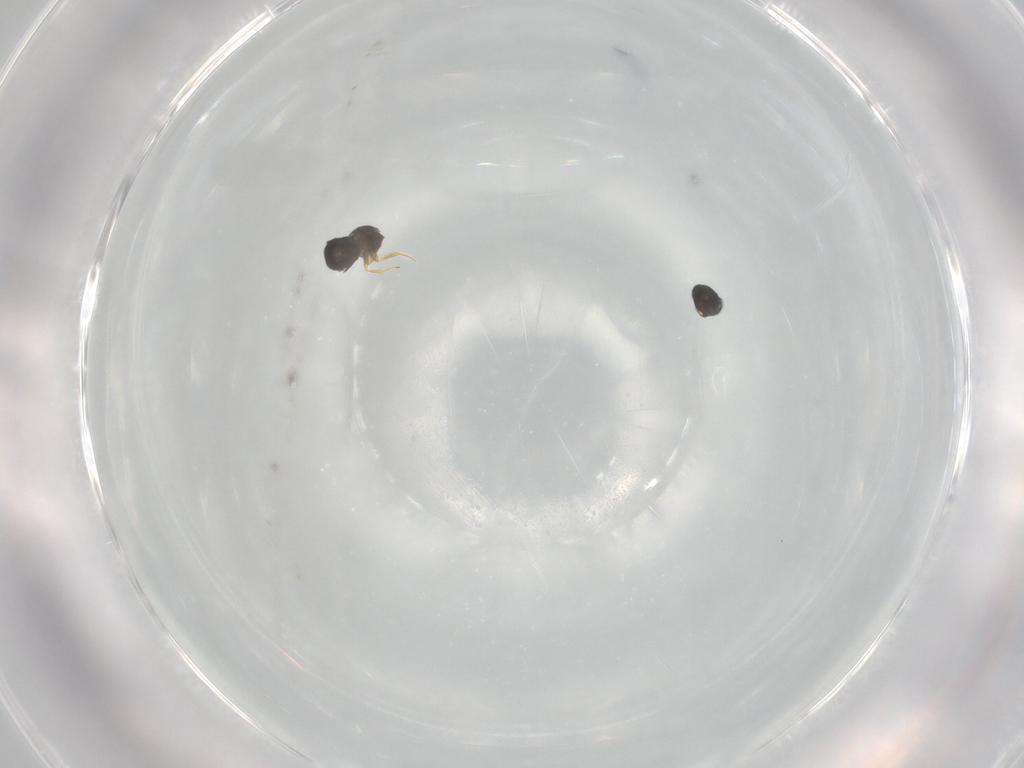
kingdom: Animalia
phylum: Arthropoda
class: Insecta
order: Hymenoptera
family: Scelionidae
